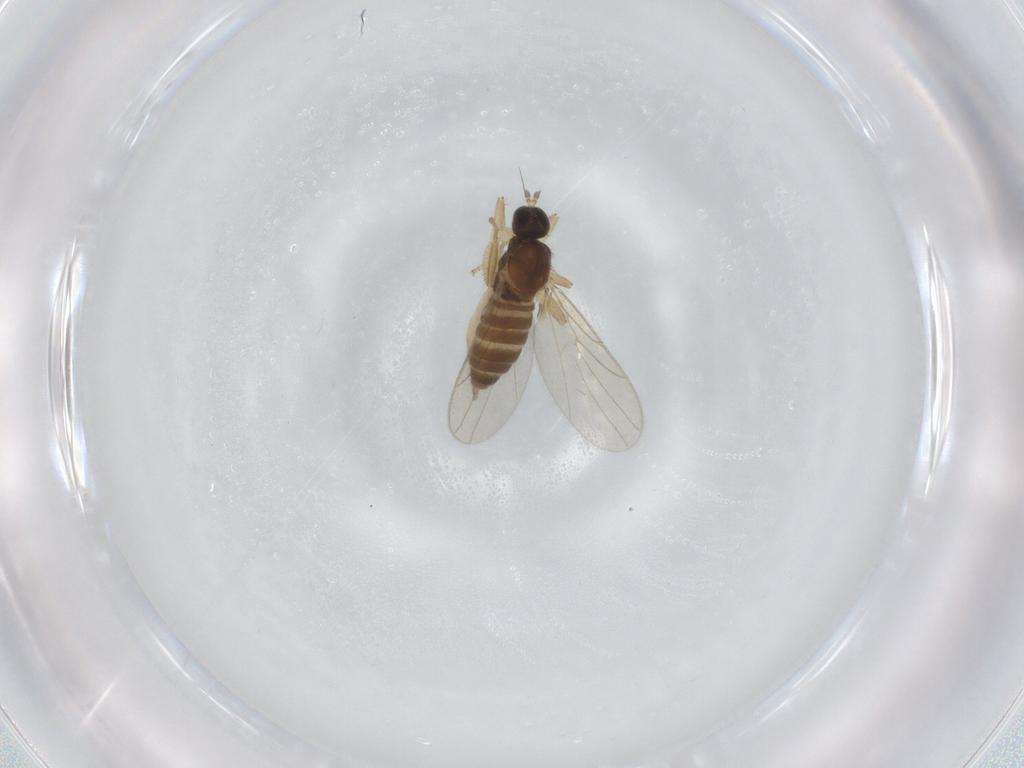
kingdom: Animalia
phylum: Arthropoda
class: Insecta
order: Diptera
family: Hybotidae
